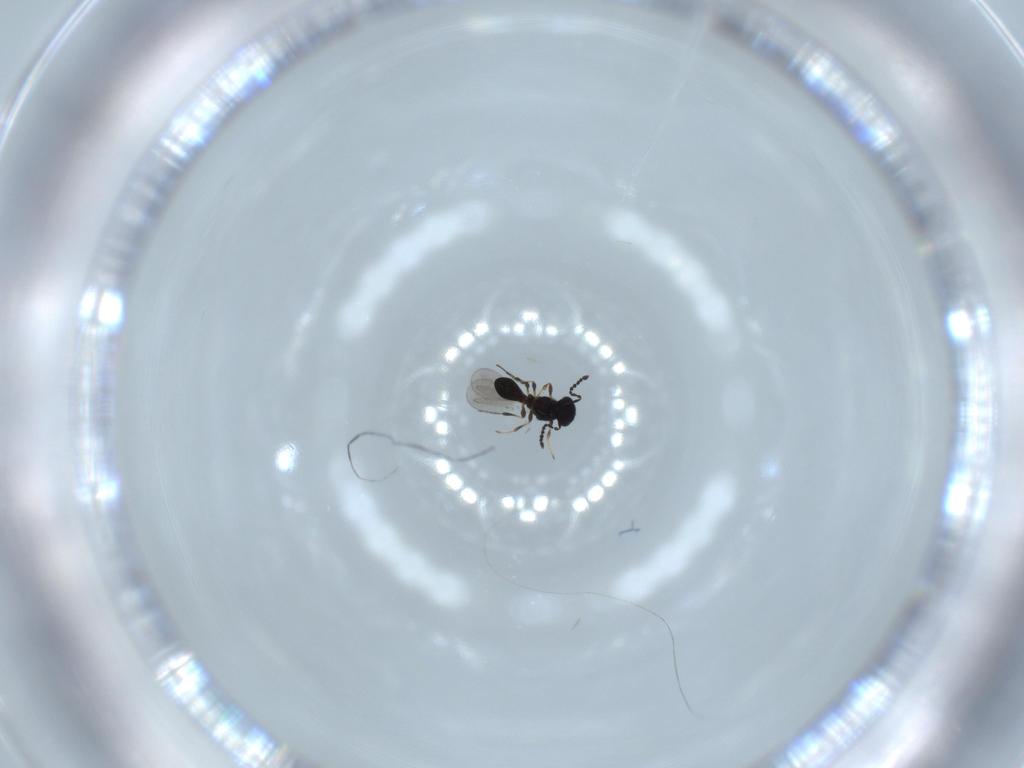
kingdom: Animalia
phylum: Arthropoda
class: Insecta
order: Hymenoptera
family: Platygastridae
